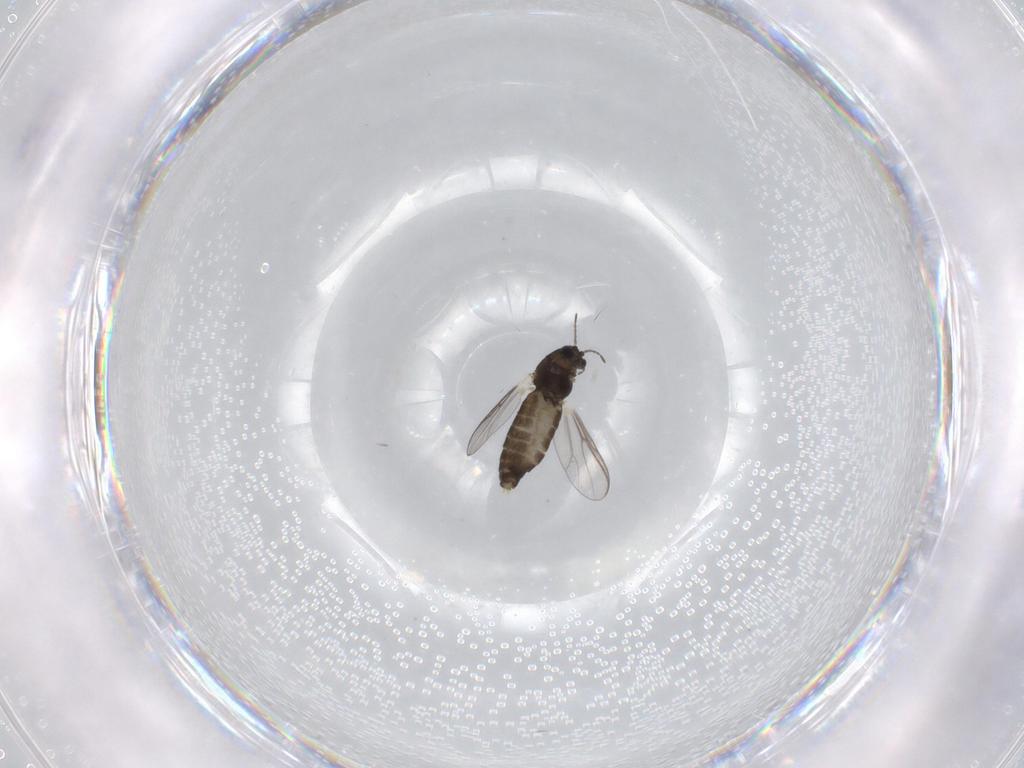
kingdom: Animalia
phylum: Arthropoda
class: Insecta
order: Diptera
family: Chironomidae
